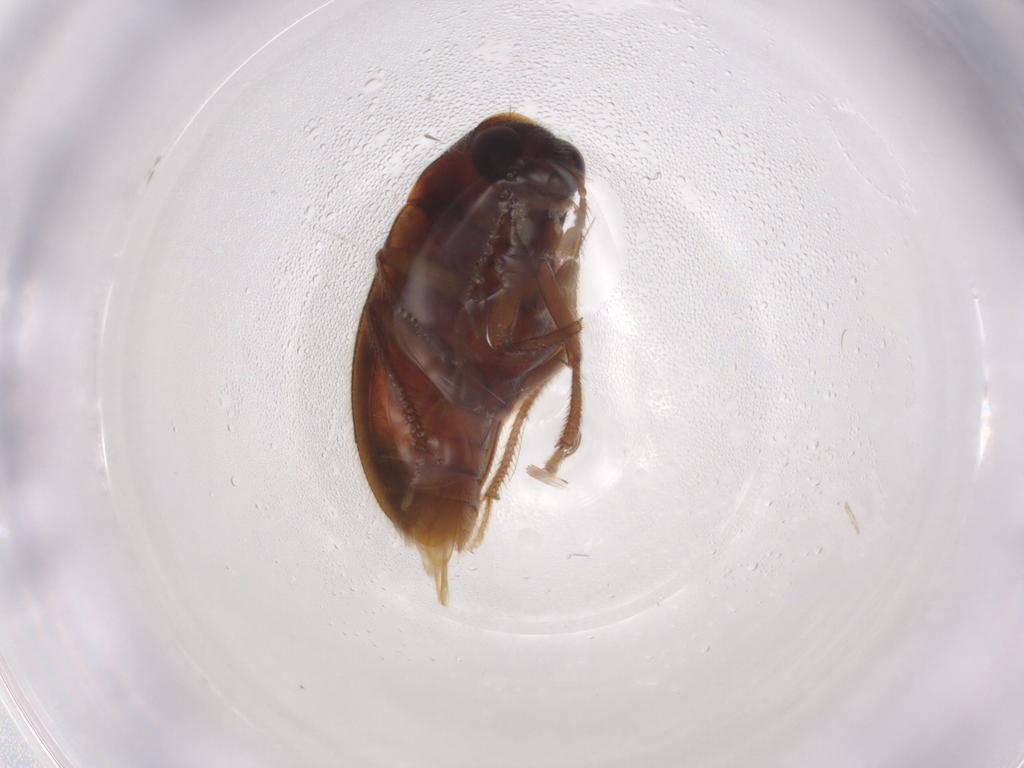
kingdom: Animalia
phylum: Arthropoda
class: Insecta
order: Coleoptera
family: Ptilodactylidae
